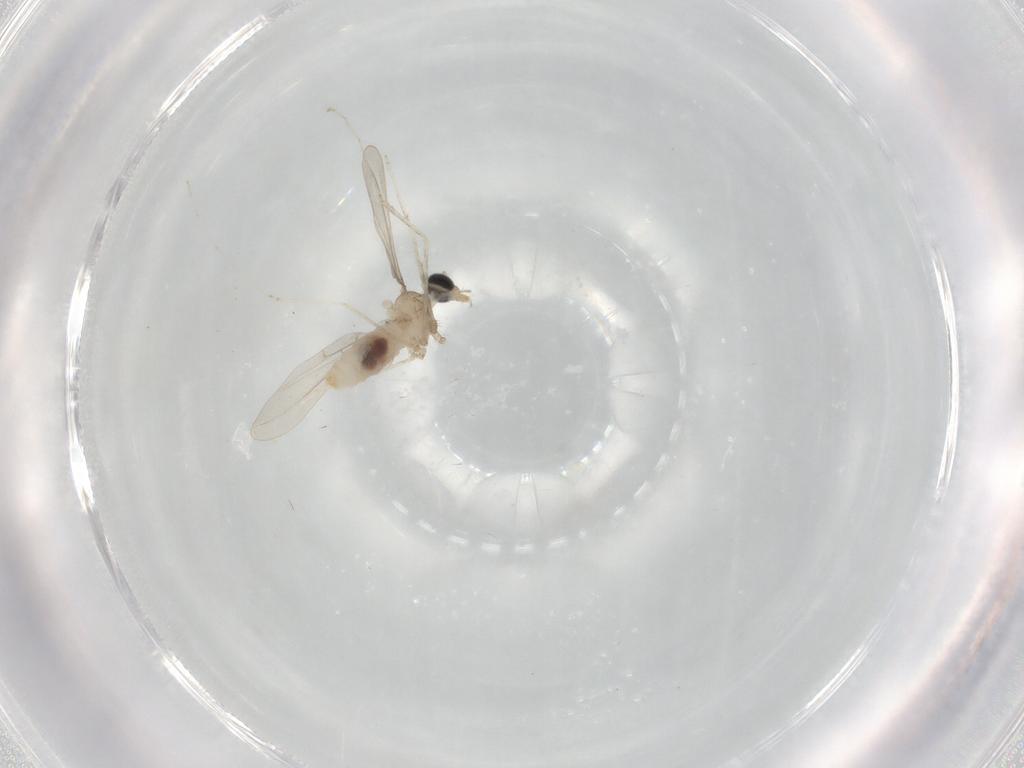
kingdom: Animalia
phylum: Arthropoda
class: Insecta
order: Diptera
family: Cecidomyiidae
